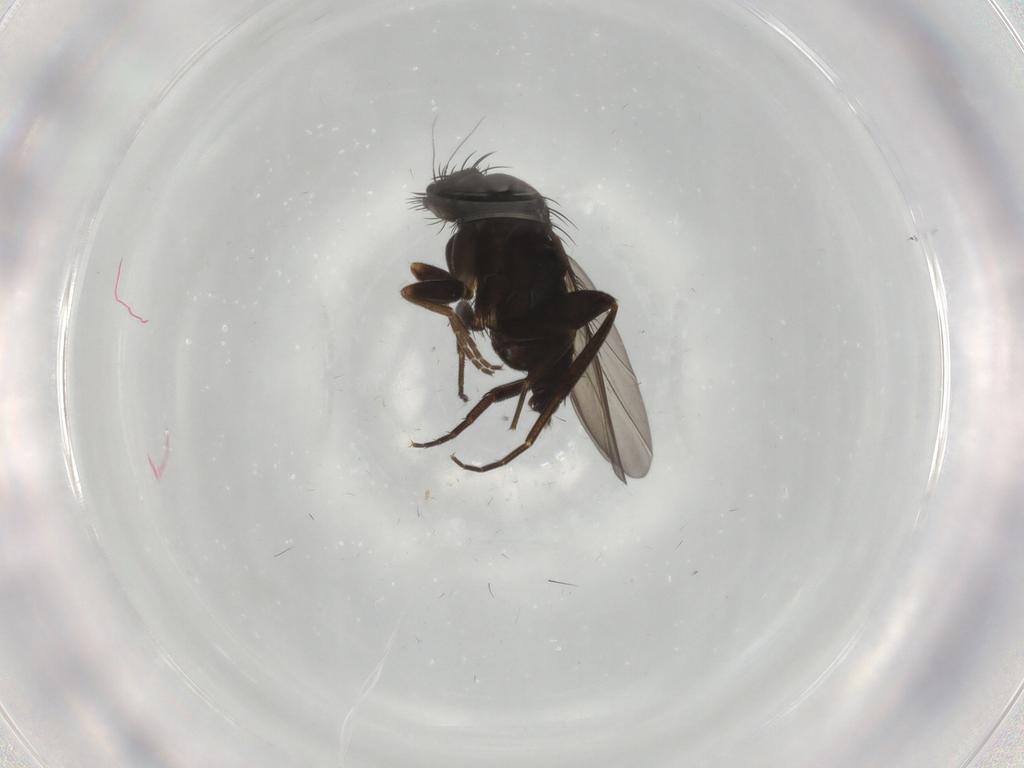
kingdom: Animalia
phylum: Arthropoda
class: Insecta
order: Diptera
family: Phoridae
